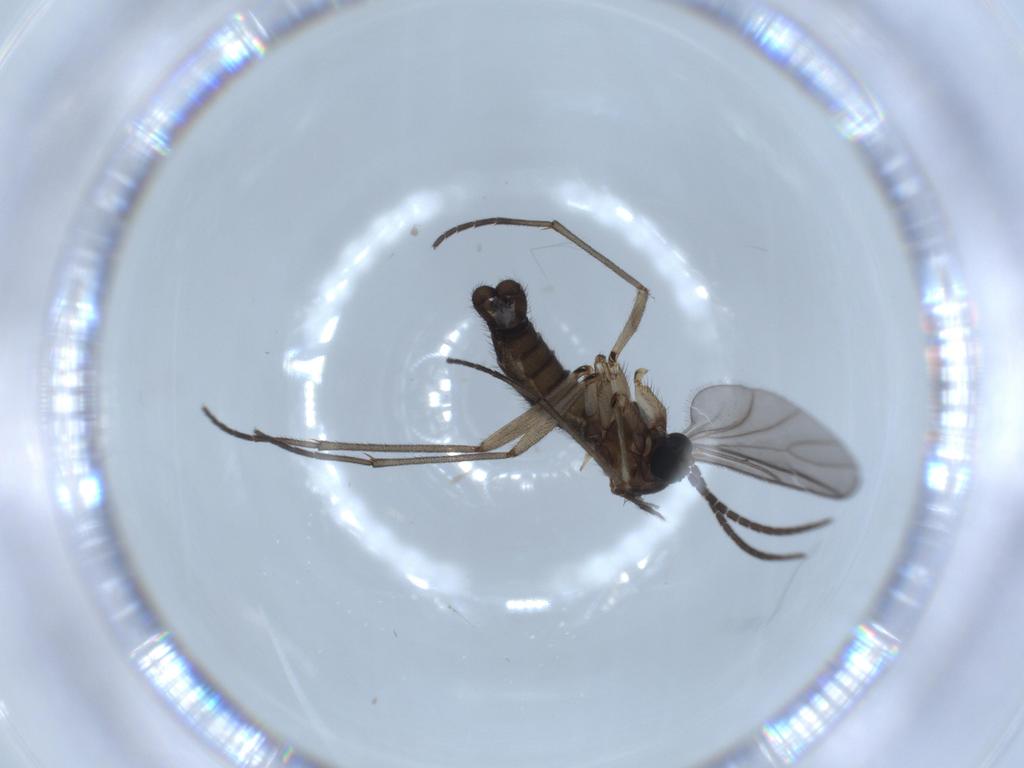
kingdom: Animalia
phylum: Arthropoda
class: Insecta
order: Diptera
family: Sciaridae
